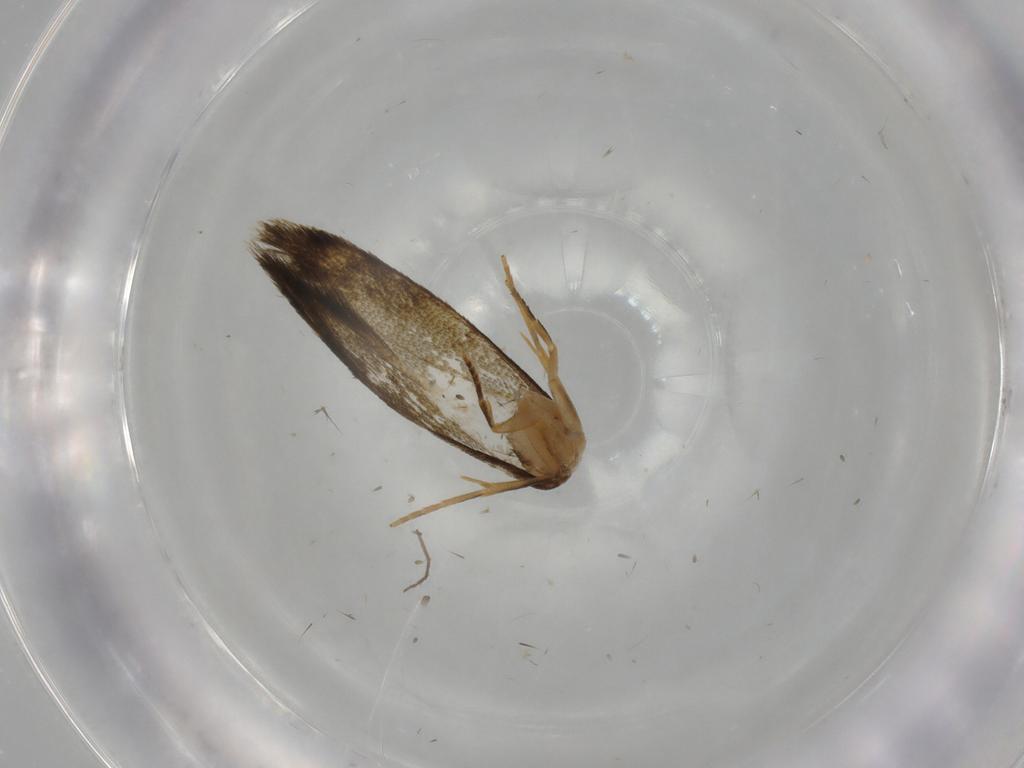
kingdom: Animalia
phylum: Arthropoda
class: Insecta
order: Lepidoptera
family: Tineidae
